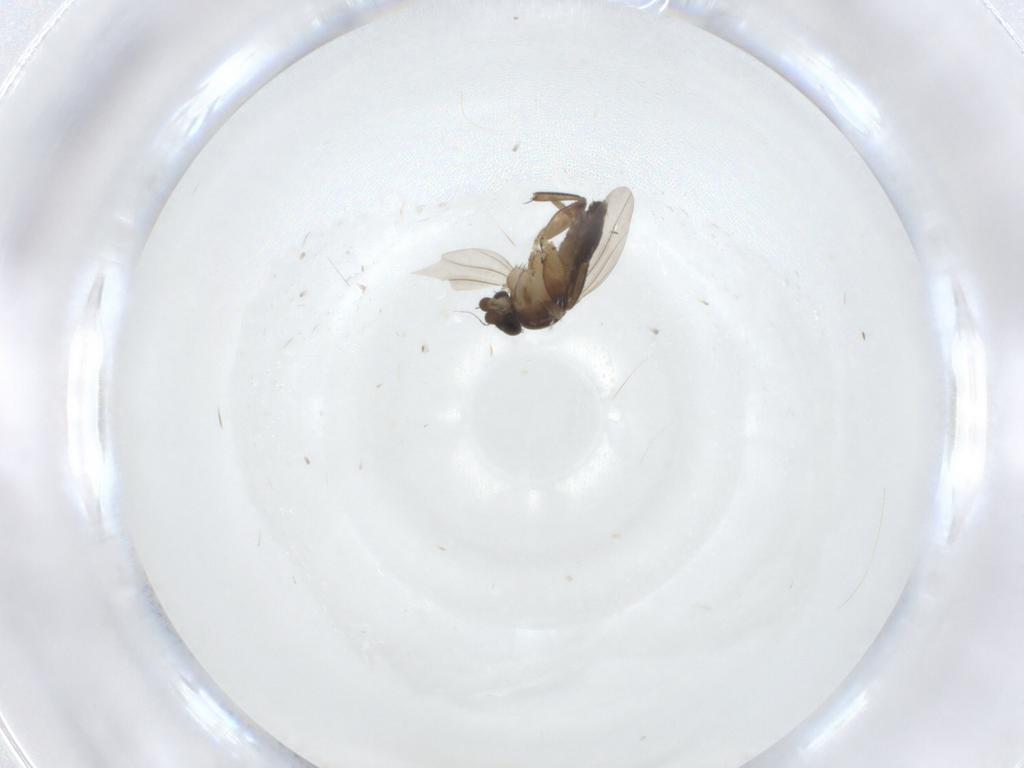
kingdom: Animalia
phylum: Arthropoda
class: Insecta
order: Diptera
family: Phoridae
